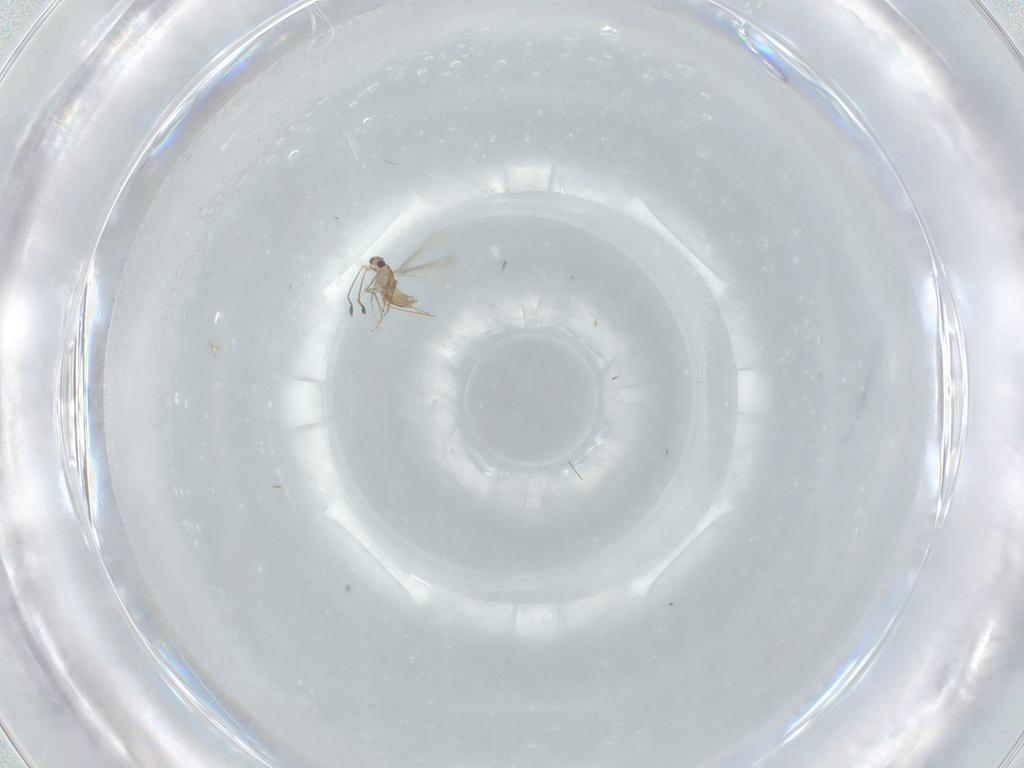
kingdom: Animalia
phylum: Arthropoda
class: Insecta
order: Hymenoptera
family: Mymaridae
